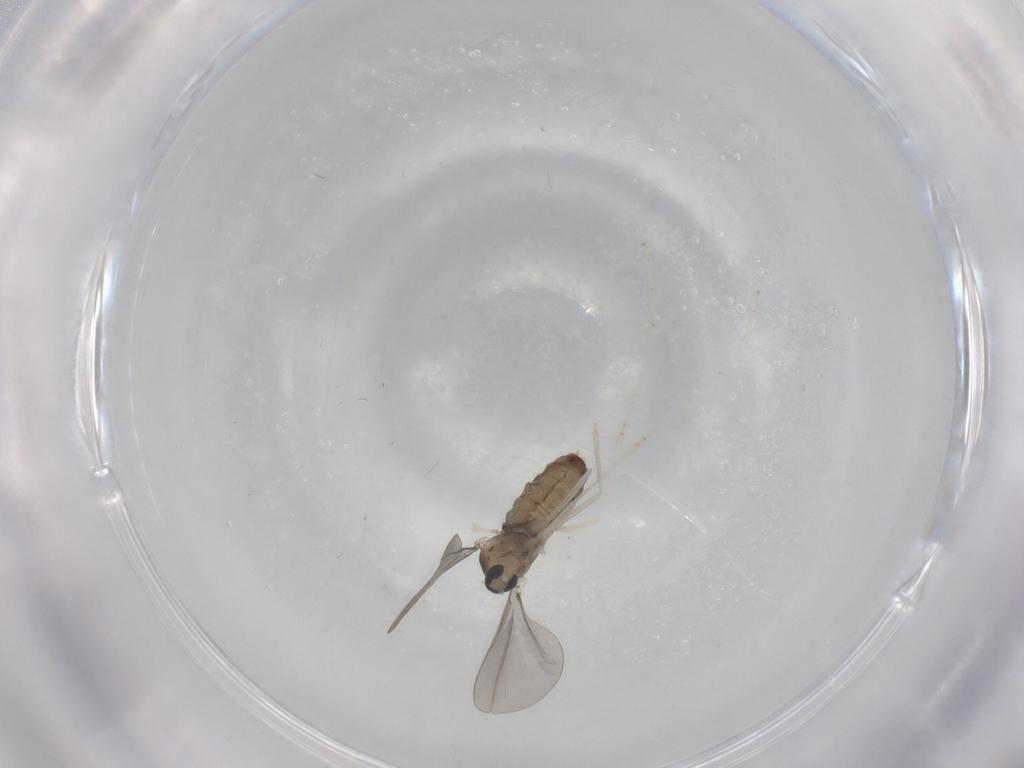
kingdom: Animalia
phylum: Arthropoda
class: Insecta
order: Diptera
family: Cecidomyiidae
